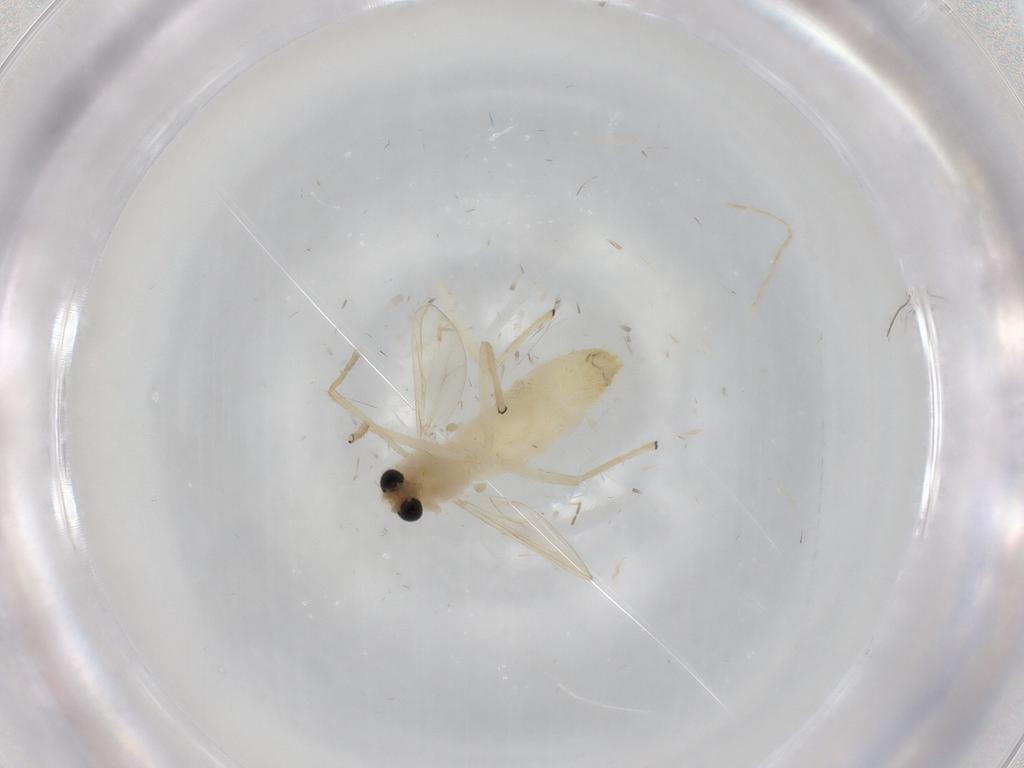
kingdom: Animalia
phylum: Arthropoda
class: Insecta
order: Diptera
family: Chironomidae
